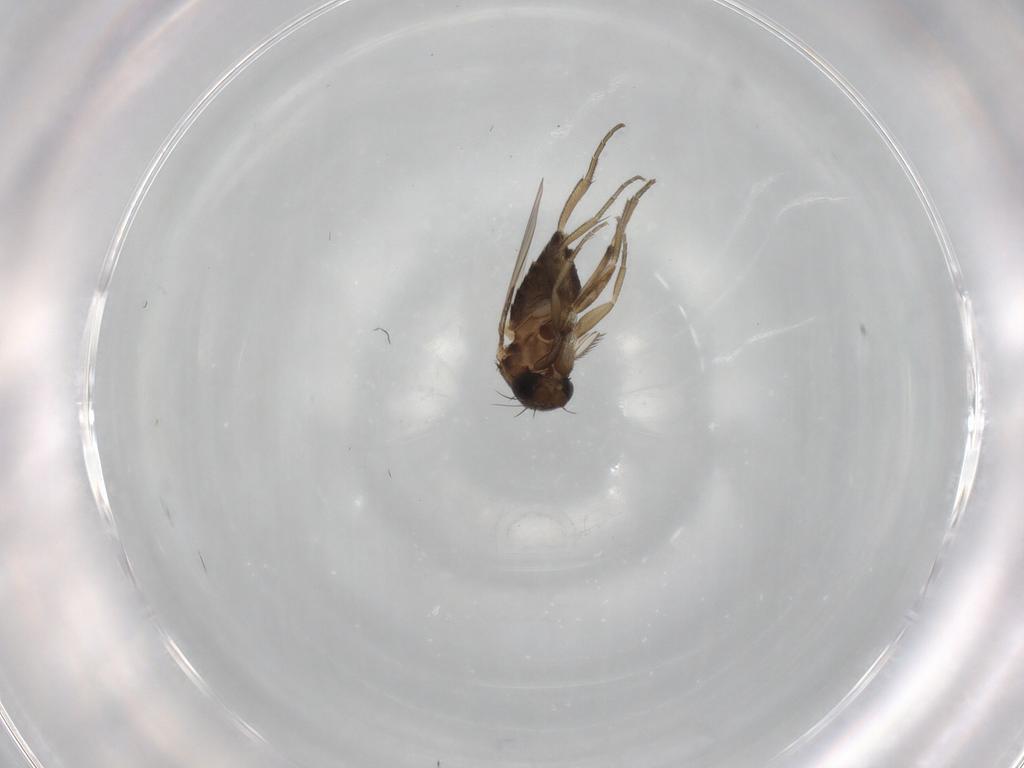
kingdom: Animalia
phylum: Arthropoda
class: Insecta
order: Diptera
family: Phoridae
